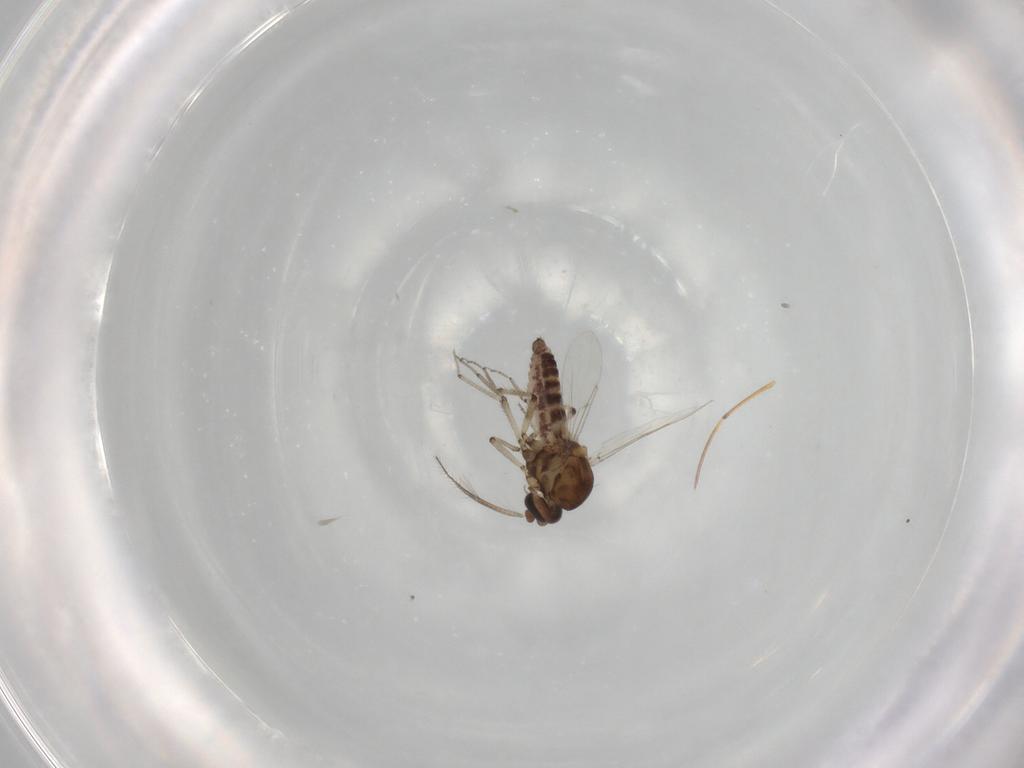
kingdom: Animalia
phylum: Arthropoda
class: Insecta
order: Diptera
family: Ceratopogonidae
